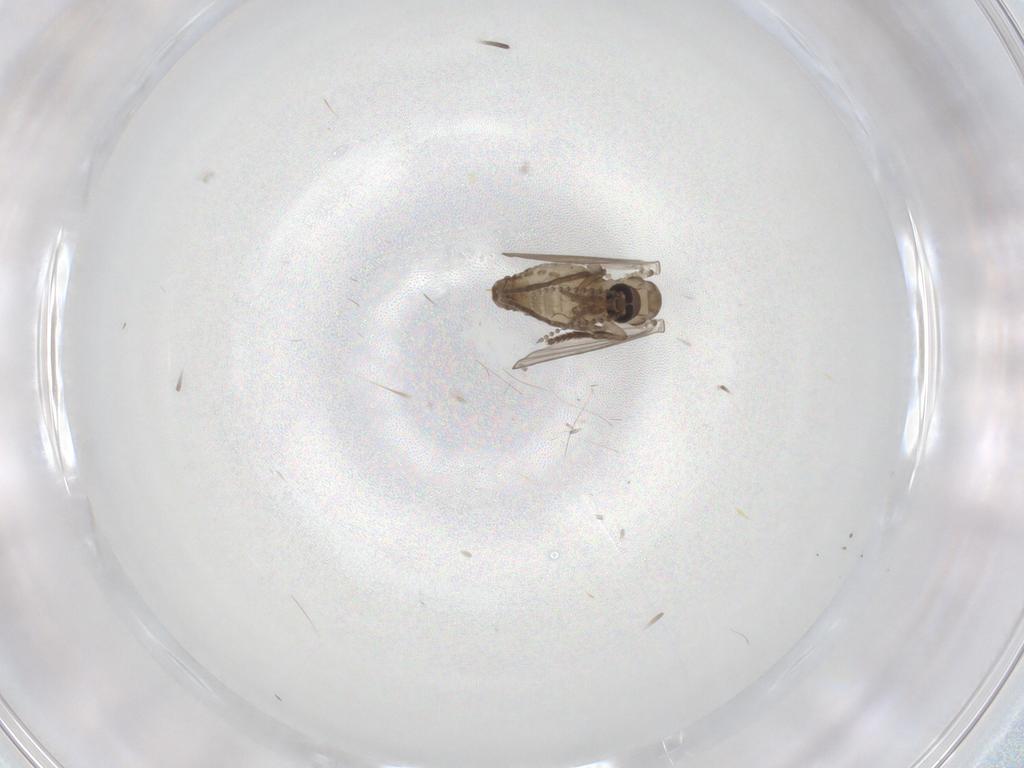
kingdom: Animalia
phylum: Arthropoda
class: Insecta
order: Diptera
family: Psychodidae
